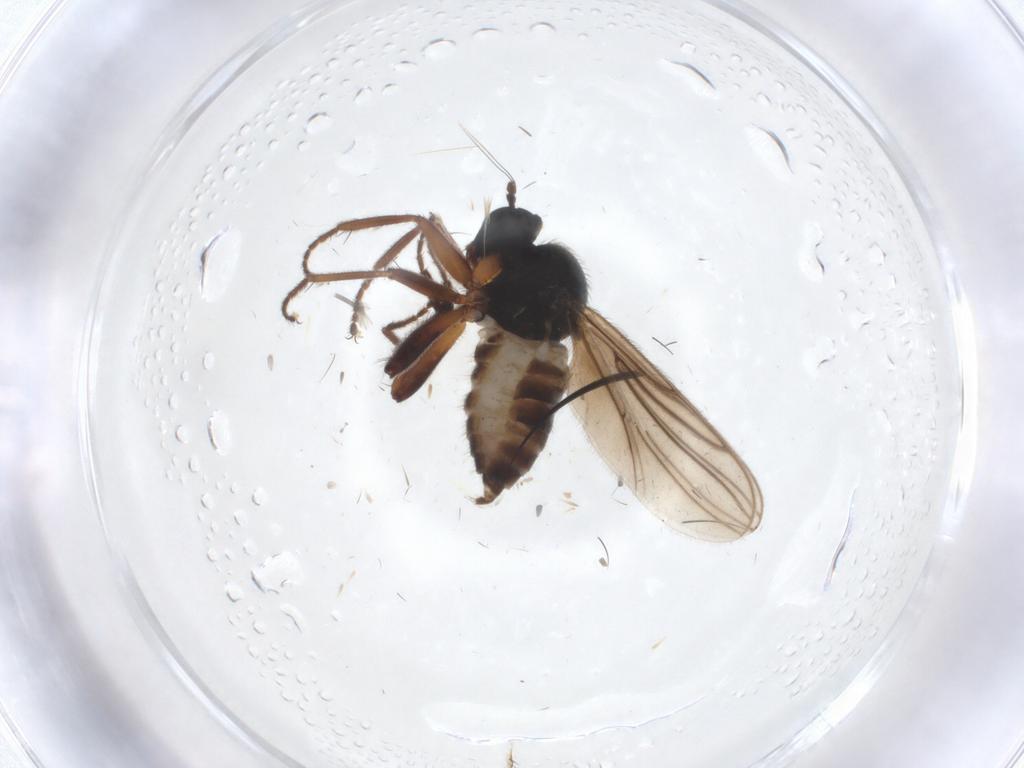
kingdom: Animalia
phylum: Arthropoda
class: Insecta
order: Diptera
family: Hybotidae
